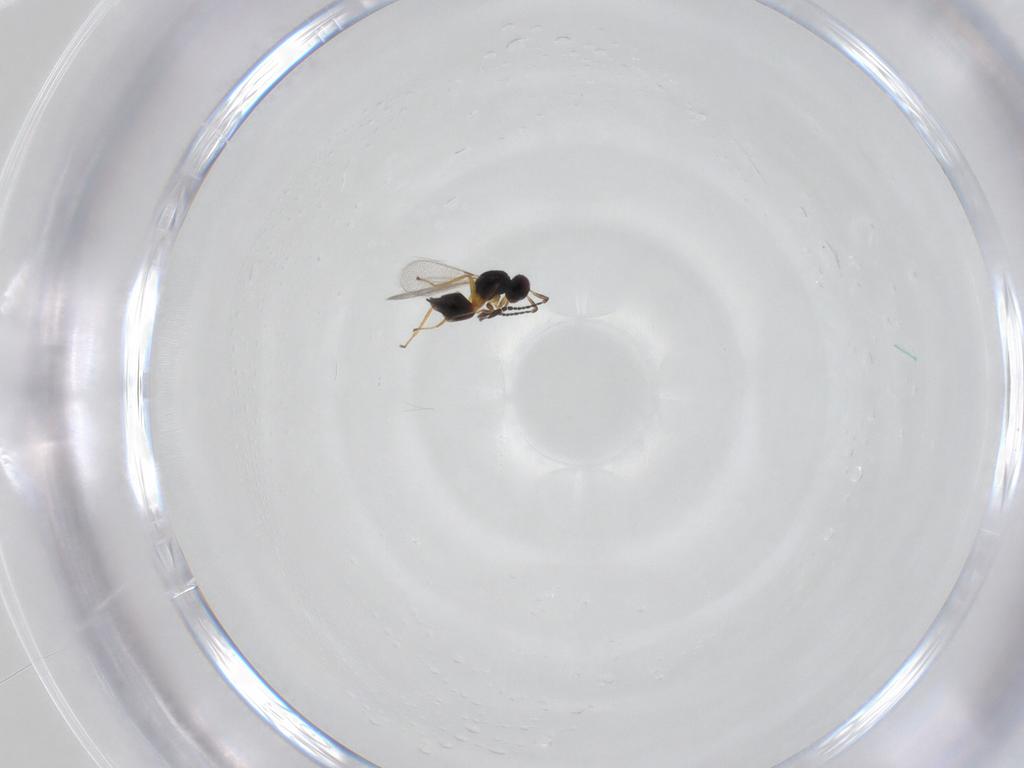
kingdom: Animalia
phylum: Arthropoda
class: Insecta
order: Hymenoptera
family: Mymaridae
